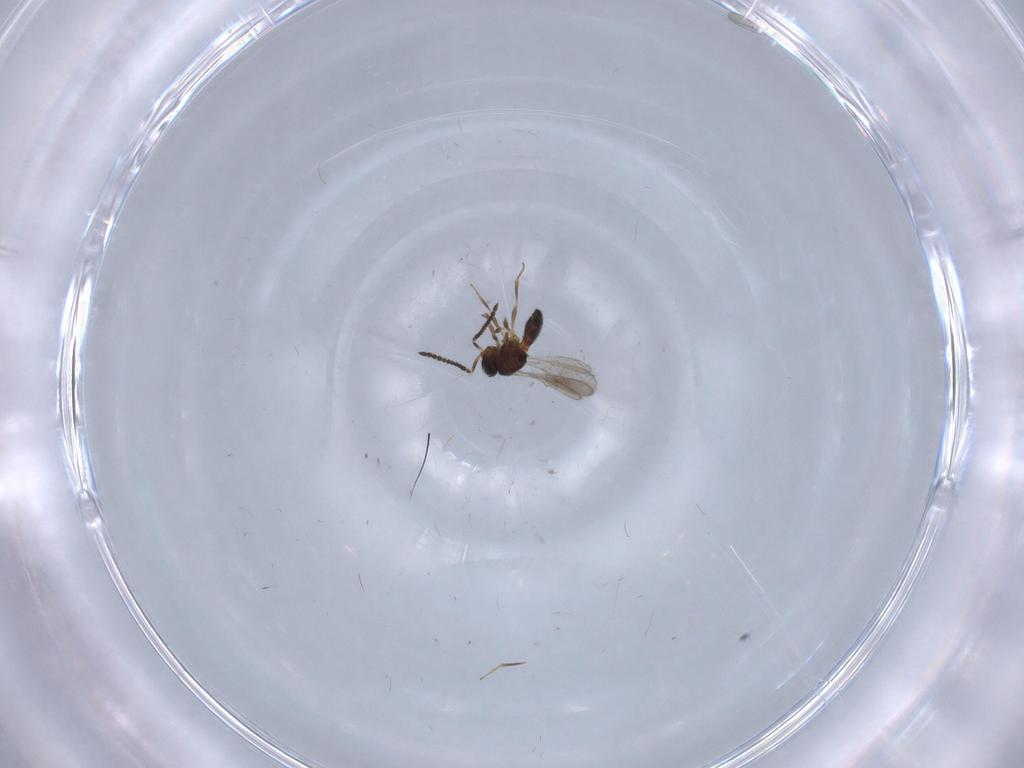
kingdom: Animalia
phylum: Arthropoda
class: Insecta
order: Hymenoptera
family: Scelionidae
